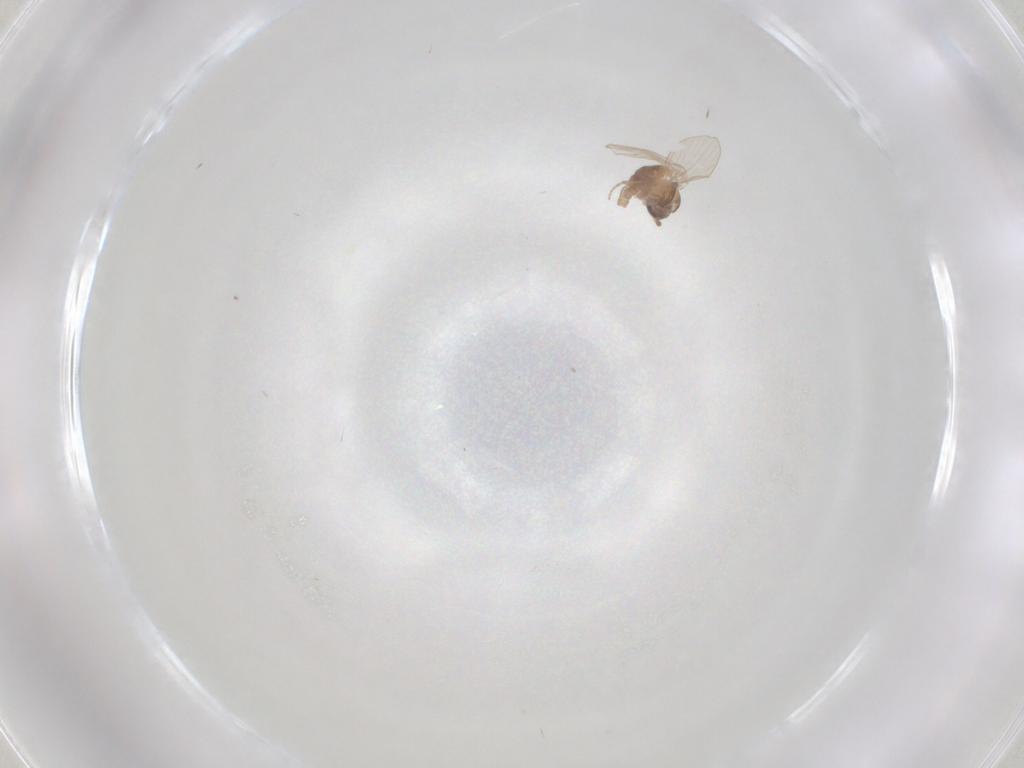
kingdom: Animalia
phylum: Arthropoda
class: Insecta
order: Diptera
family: Psychodidae
